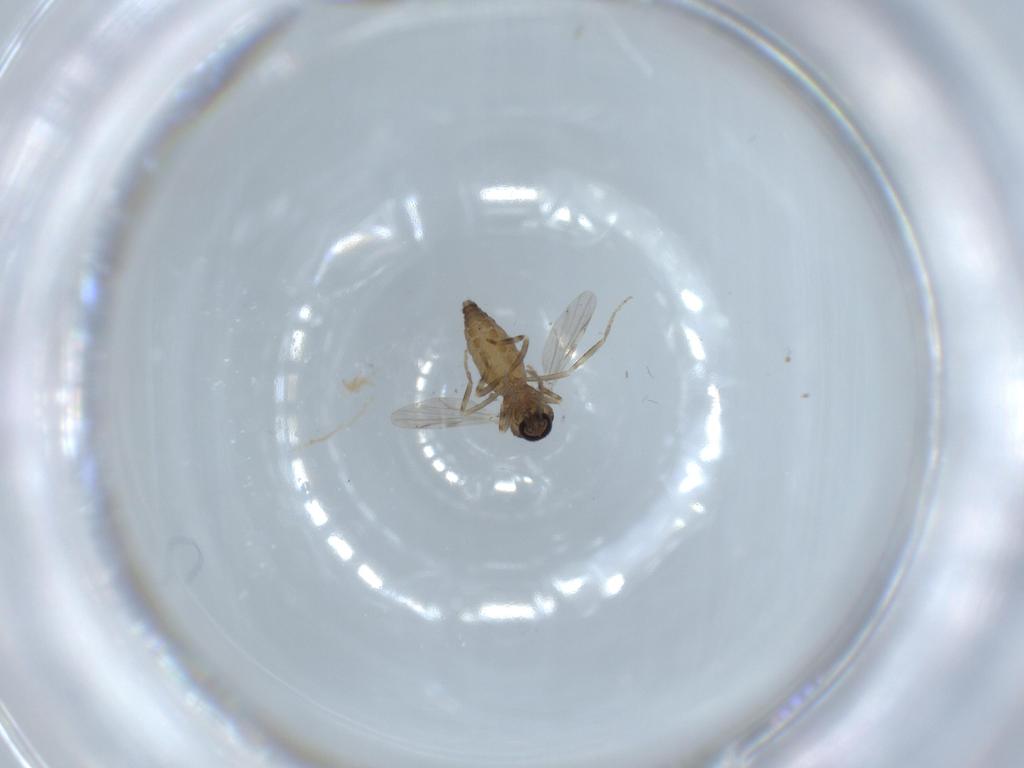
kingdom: Animalia
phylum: Arthropoda
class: Insecta
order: Diptera
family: Ceratopogonidae
